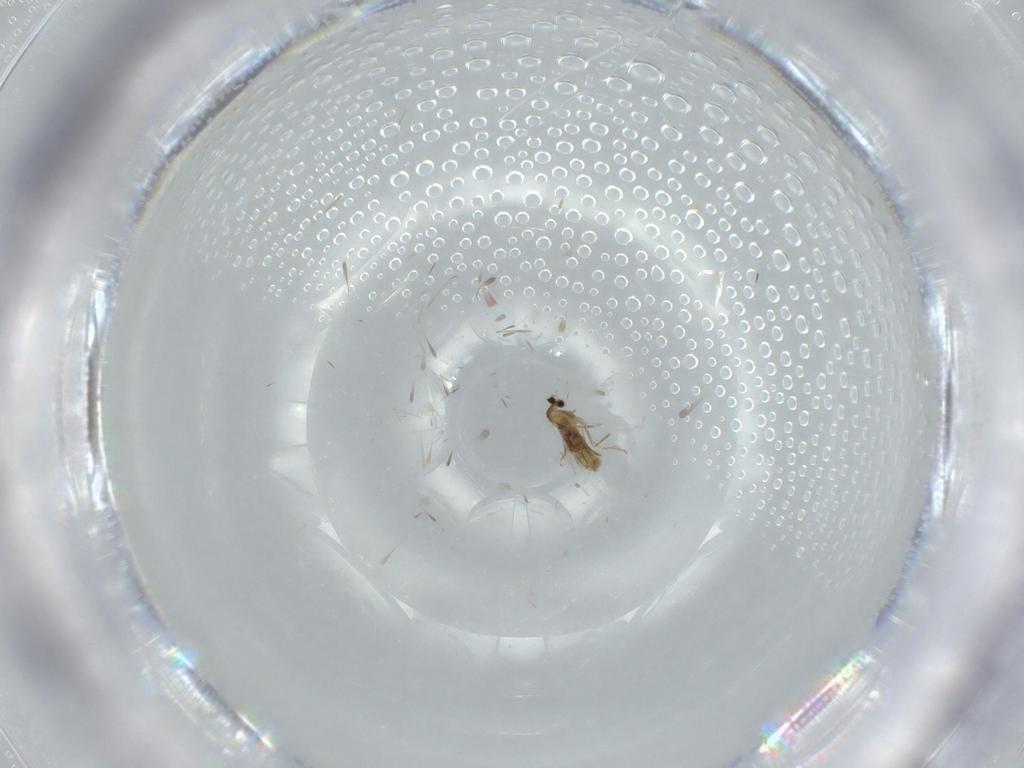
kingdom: Animalia
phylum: Arthropoda
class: Insecta
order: Diptera
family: Cecidomyiidae
